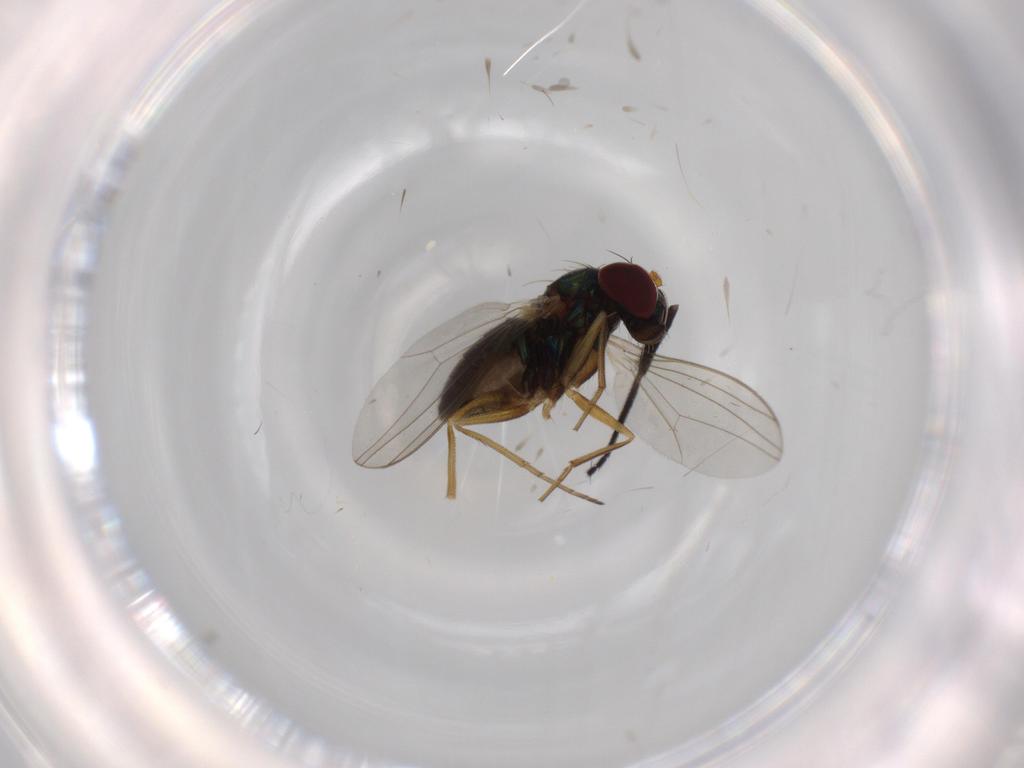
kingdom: Animalia
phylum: Arthropoda
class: Insecta
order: Diptera
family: Milichiidae
